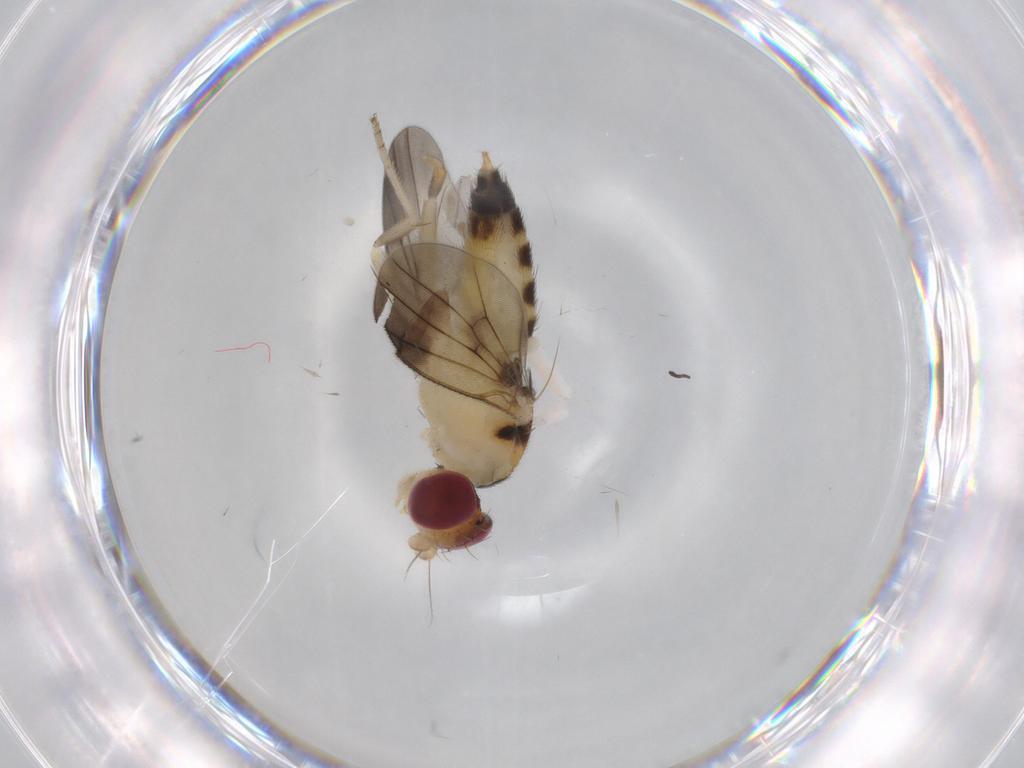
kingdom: Animalia
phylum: Arthropoda
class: Insecta
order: Diptera
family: Clusiidae
